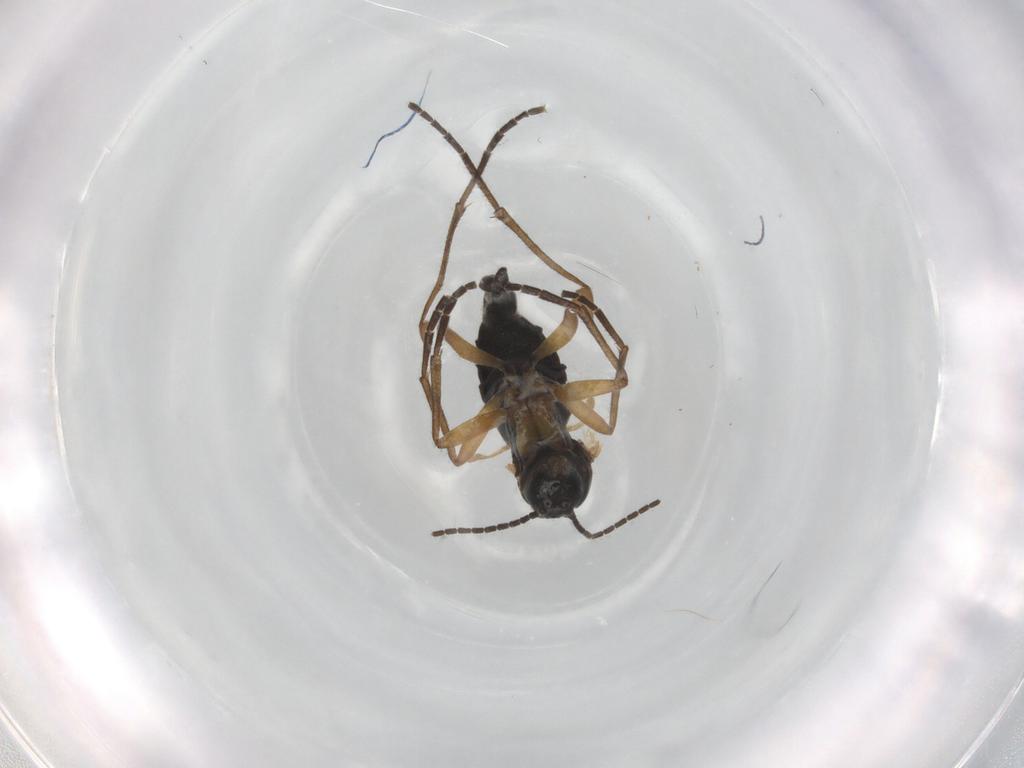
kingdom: Animalia
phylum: Arthropoda
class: Insecta
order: Diptera
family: Sciaridae
